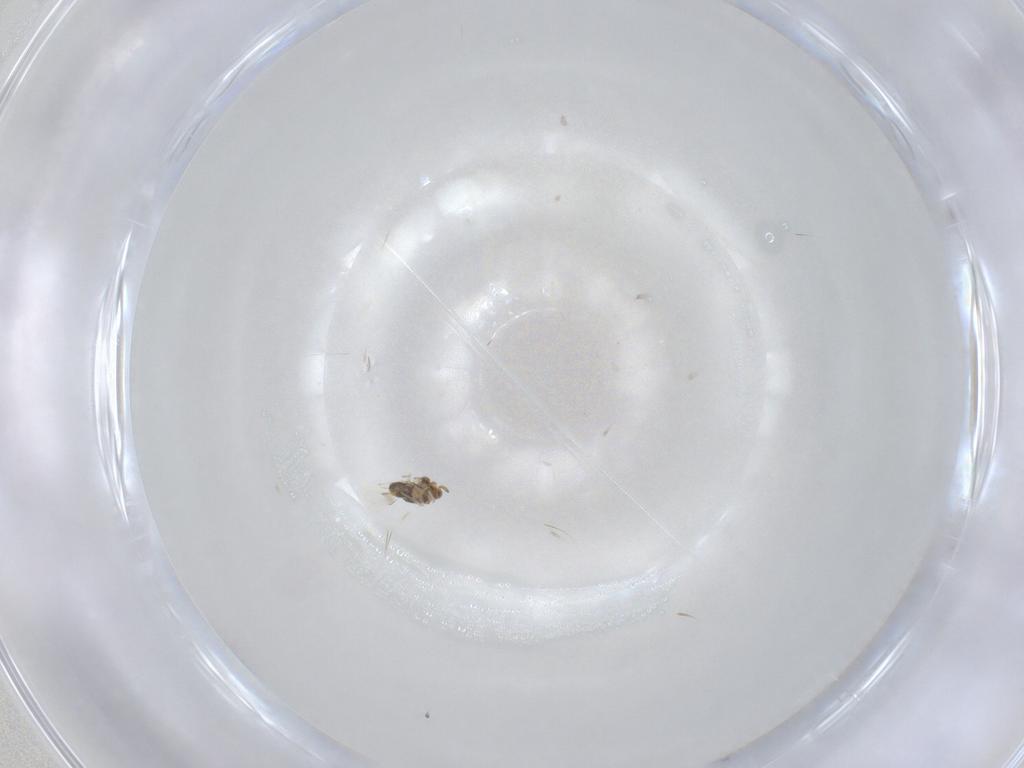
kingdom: Animalia
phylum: Arthropoda
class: Insecta
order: Hymenoptera
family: Aphelinidae
